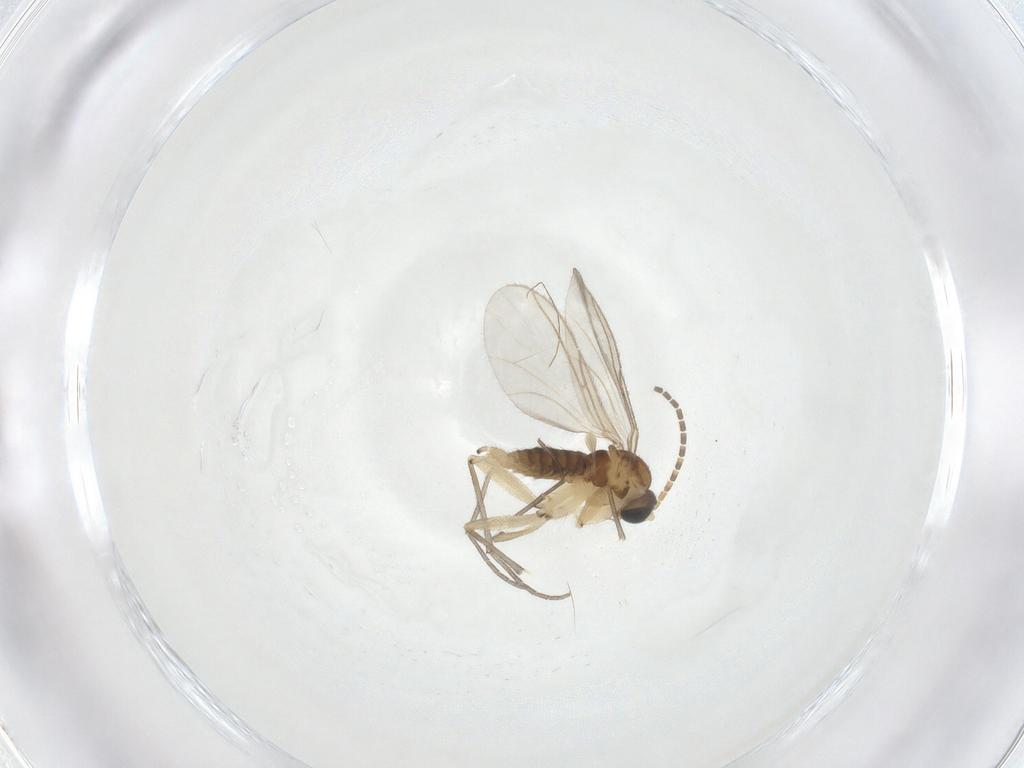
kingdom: Animalia
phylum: Arthropoda
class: Insecta
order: Diptera
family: Sciaridae
